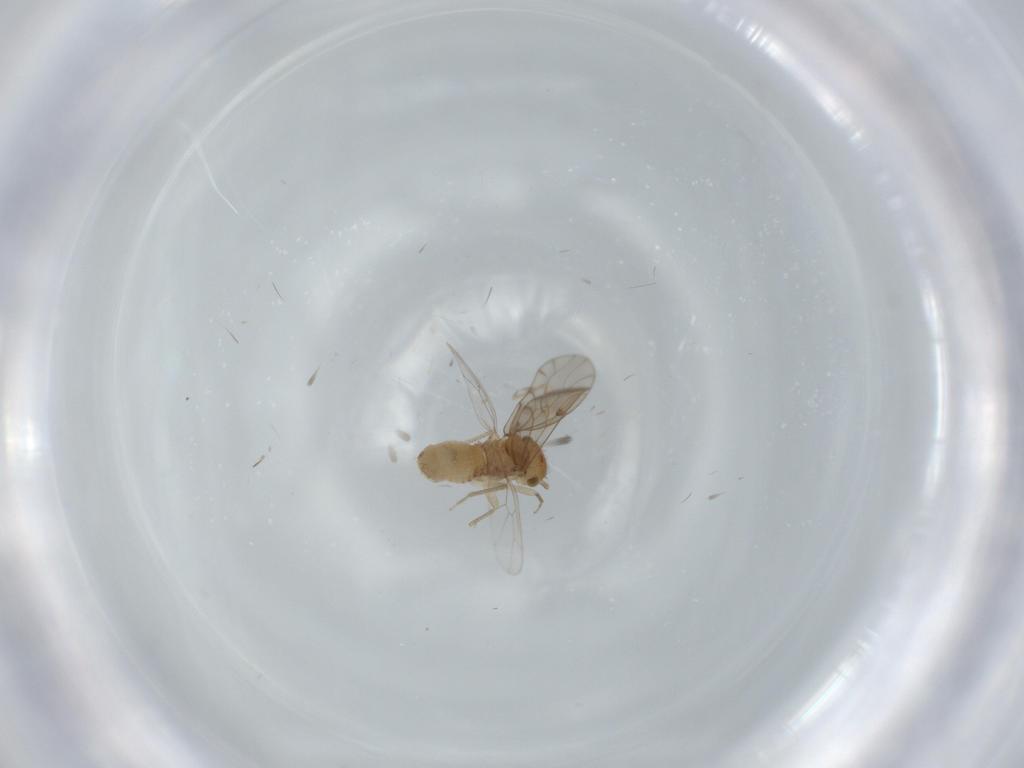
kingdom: Animalia
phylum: Arthropoda
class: Insecta
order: Psocodea
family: Ectopsocidae
